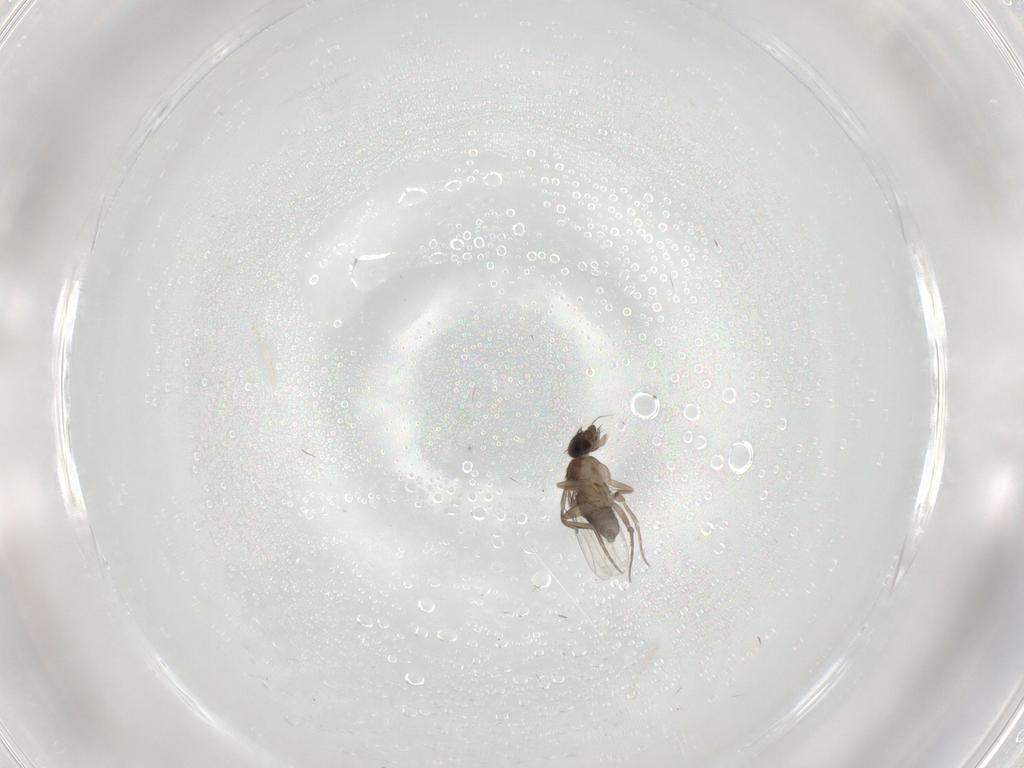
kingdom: Animalia
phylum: Arthropoda
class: Insecta
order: Diptera
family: Phoridae
